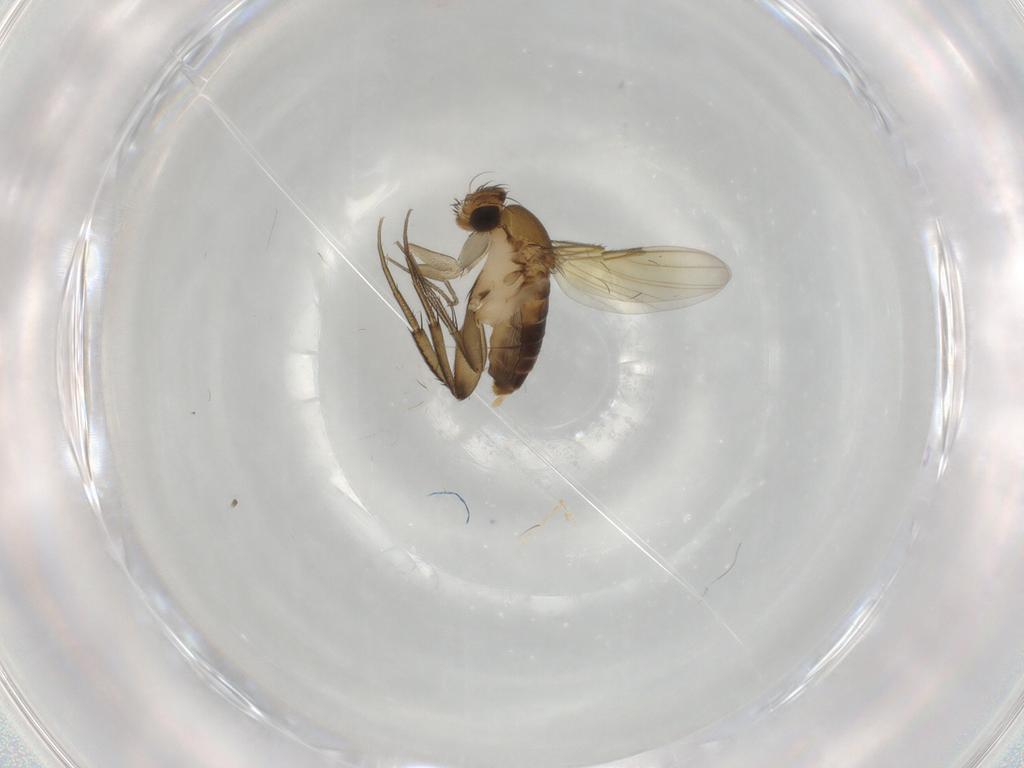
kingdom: Animalia
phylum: Arthropoda
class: Insecta
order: Diptera
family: Phoridae
